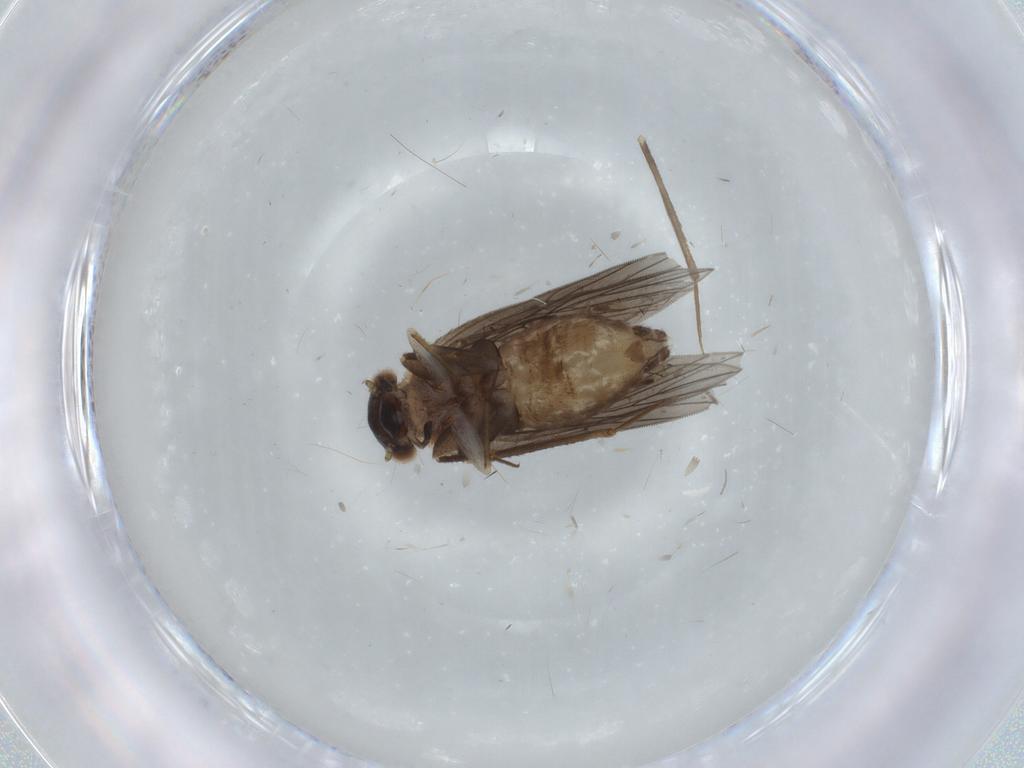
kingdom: Animalia
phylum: Arthropoda
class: Insecta
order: Psocodea
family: Lepidopsocidae
